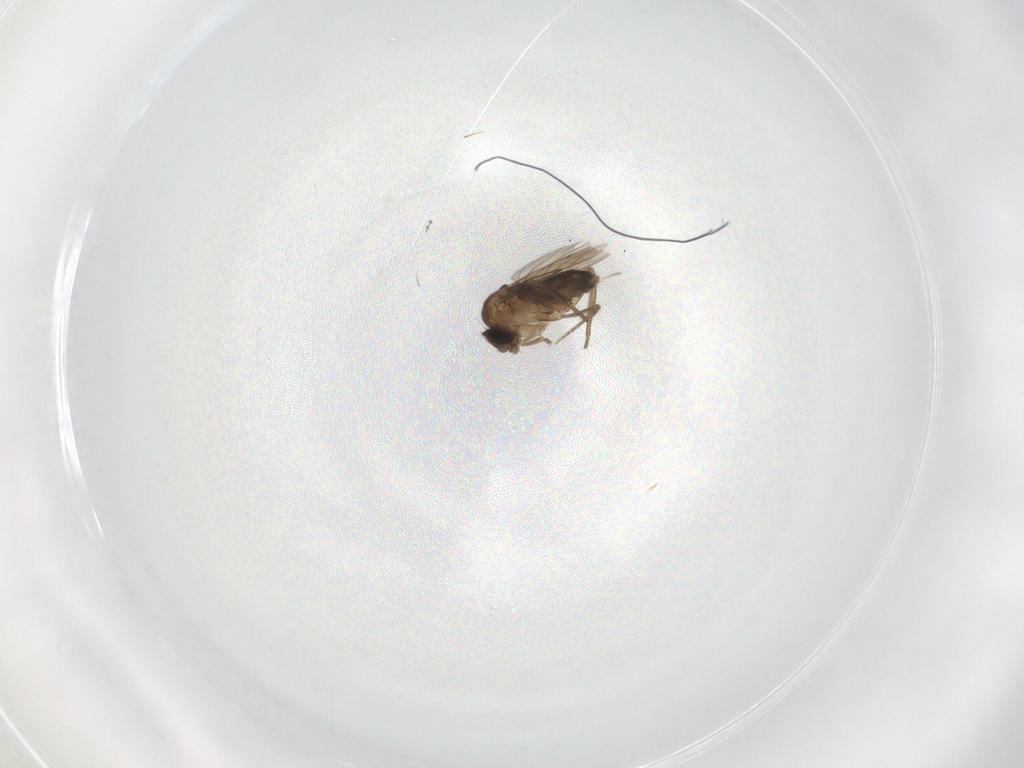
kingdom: Animalia
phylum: Arthropoda
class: Insecta
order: Diptera
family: Phoridae
